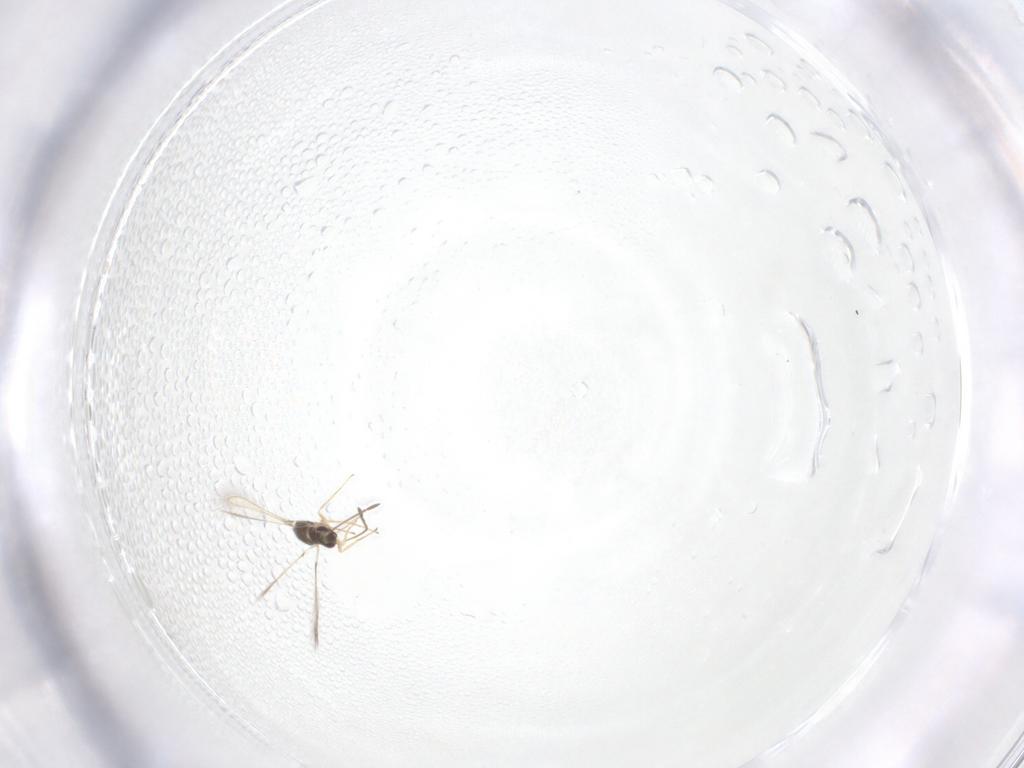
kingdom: Animalia
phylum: Arthropoda
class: Insecta
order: Hymenoptera
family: Mymaridae
